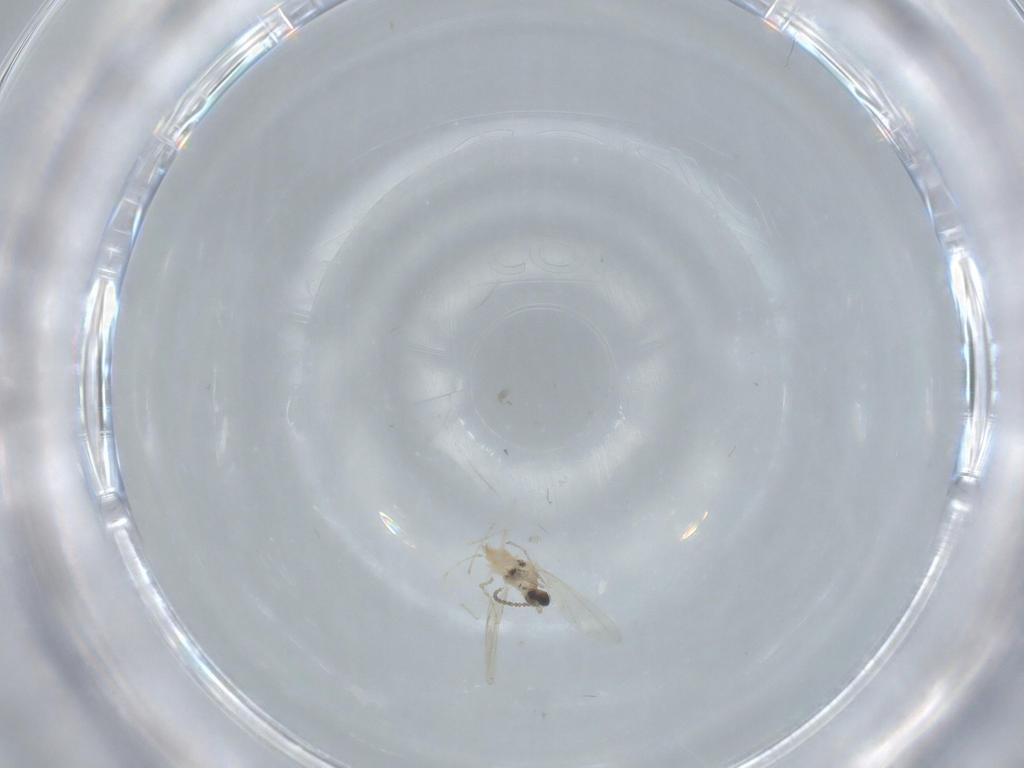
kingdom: Animalia
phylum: Arthropoda
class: Insecta
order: Diptera
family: Cecidomyiidae
